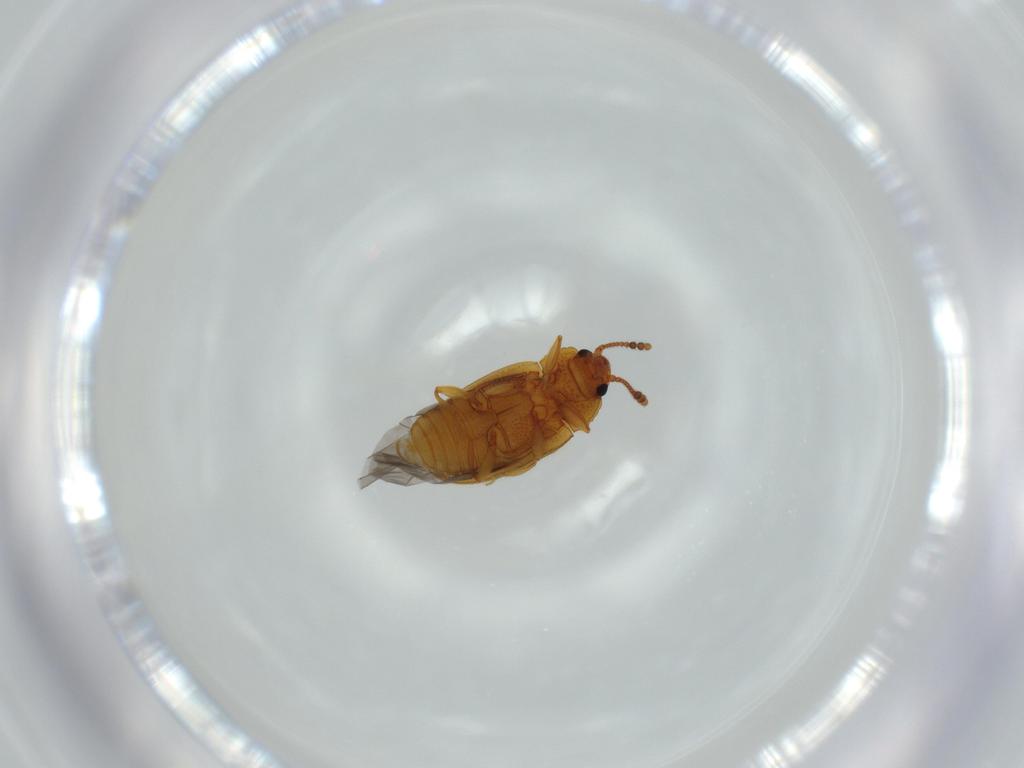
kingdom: Animalia
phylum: Arthropoda
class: Insecta
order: Coleoptera
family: Erotylidae
